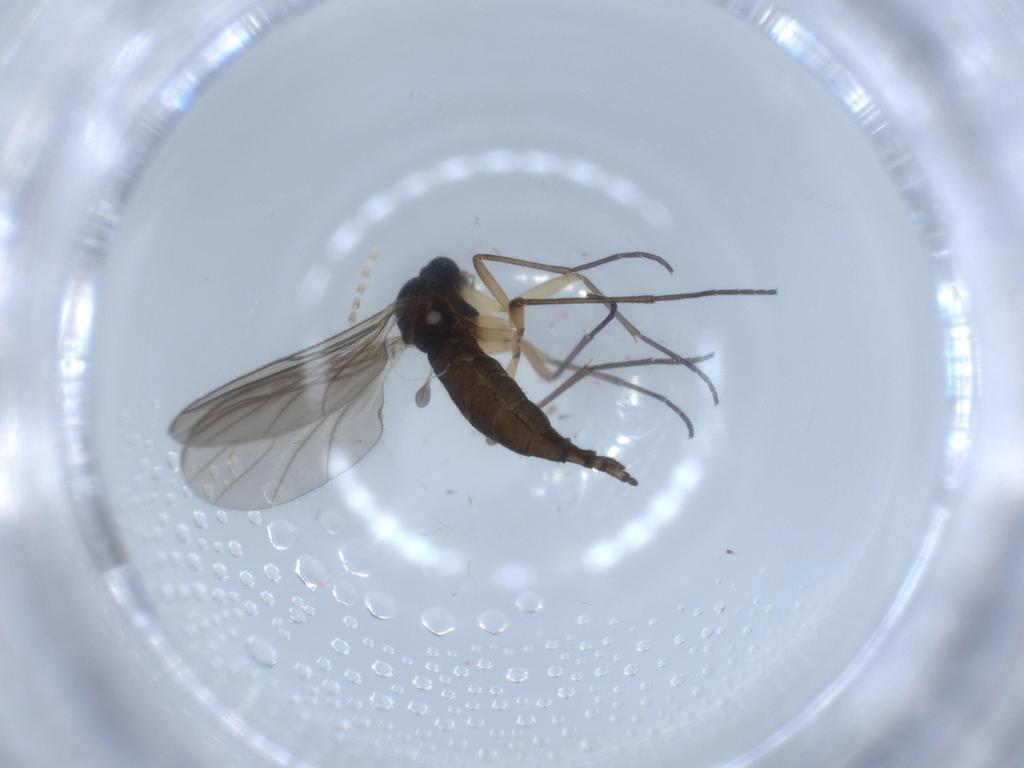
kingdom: Animalia
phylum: Arthropoda
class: Insecta
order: Diptera
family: Sciaridae
